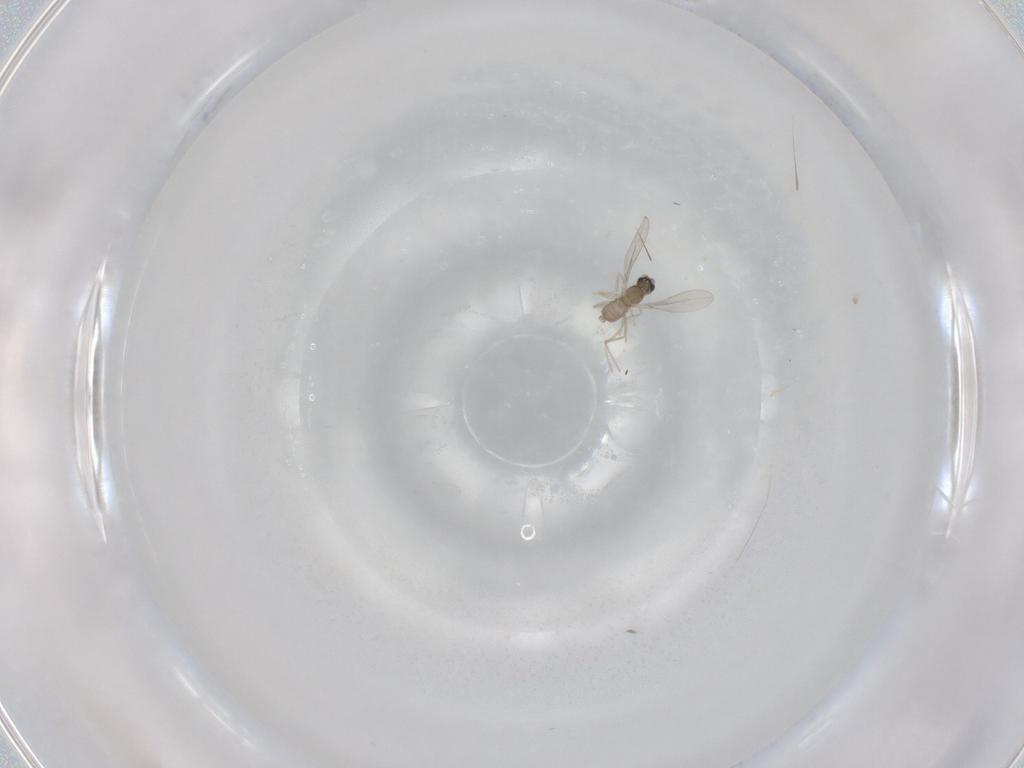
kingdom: Animalia
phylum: Arthropoda
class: Insecta
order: Diptera
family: Cecidomyiidae
